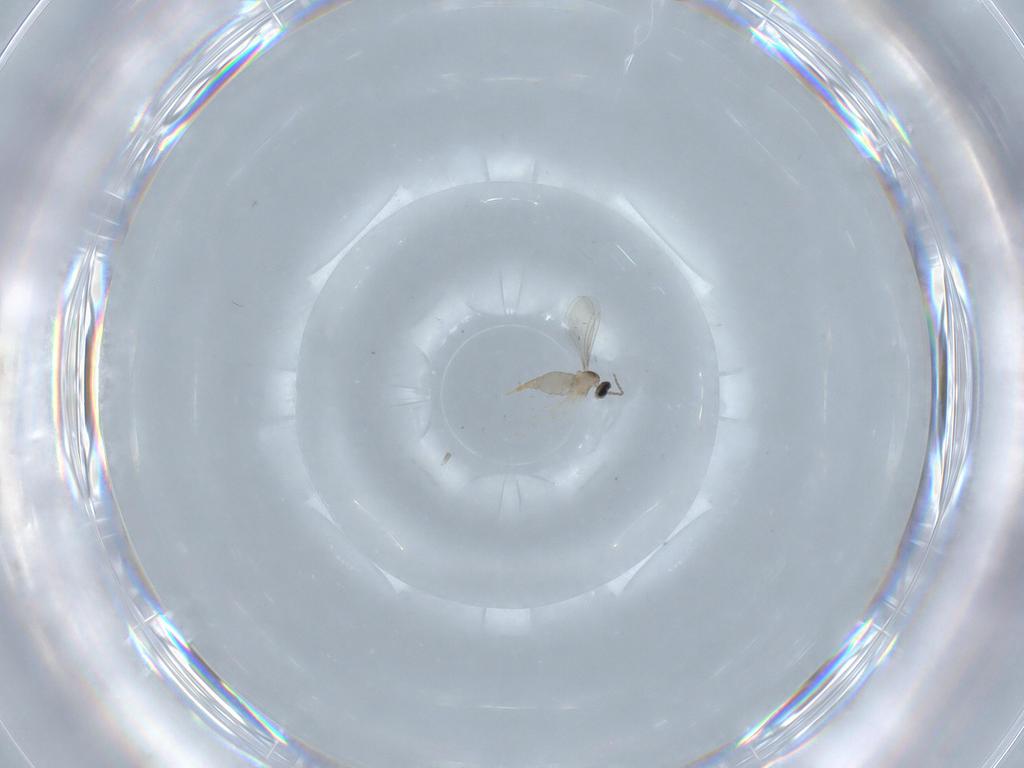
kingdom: Animalia
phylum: Arthropoda
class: Insecta
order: Diptera
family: Cecidomyiidae
